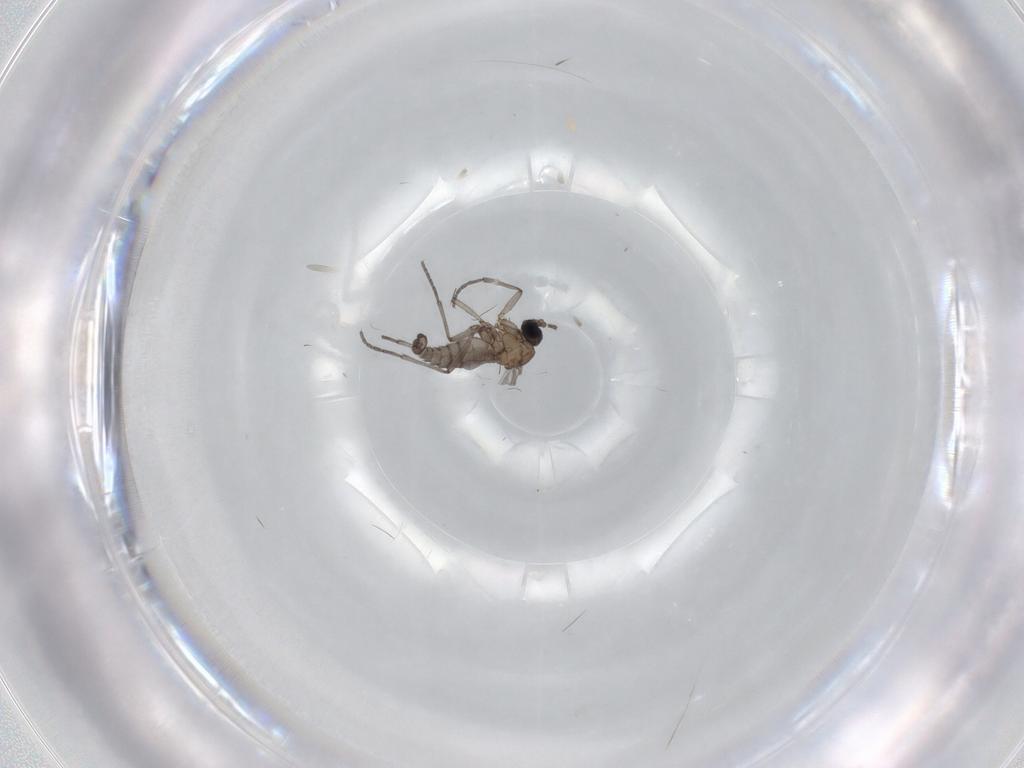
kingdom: Animalia
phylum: Arthropoda
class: Insecta
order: Diptera
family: Sciaridae
